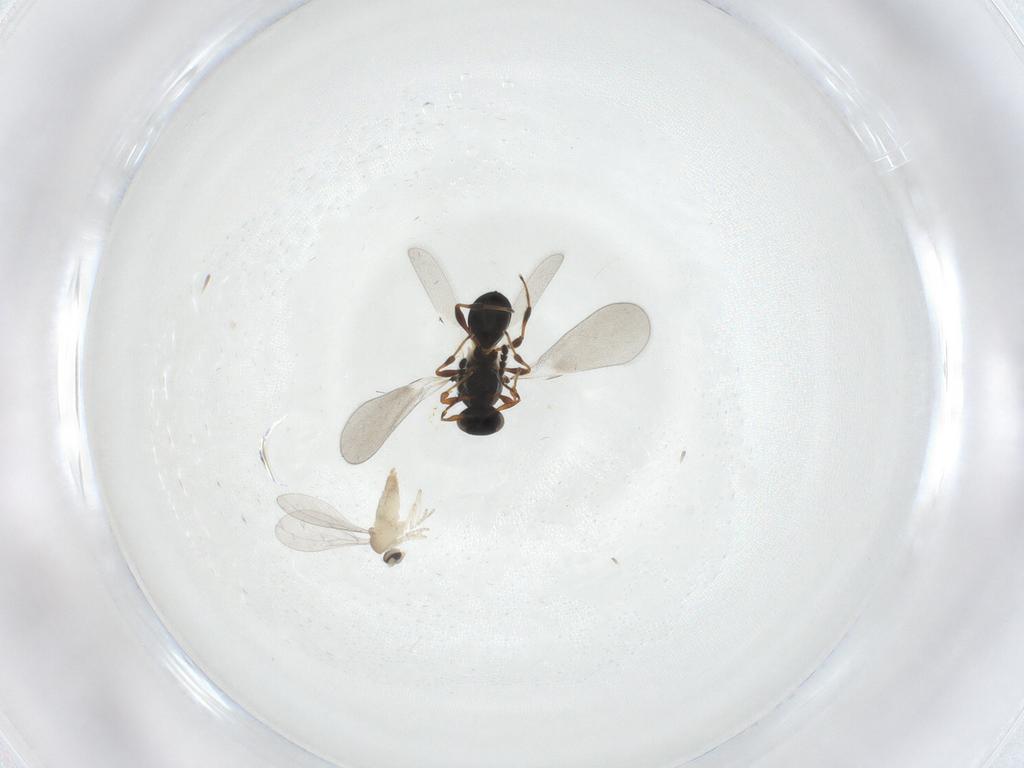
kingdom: Animalia
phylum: Arthropoda
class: Insecta
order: Diptera
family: Cecidomyiidae
